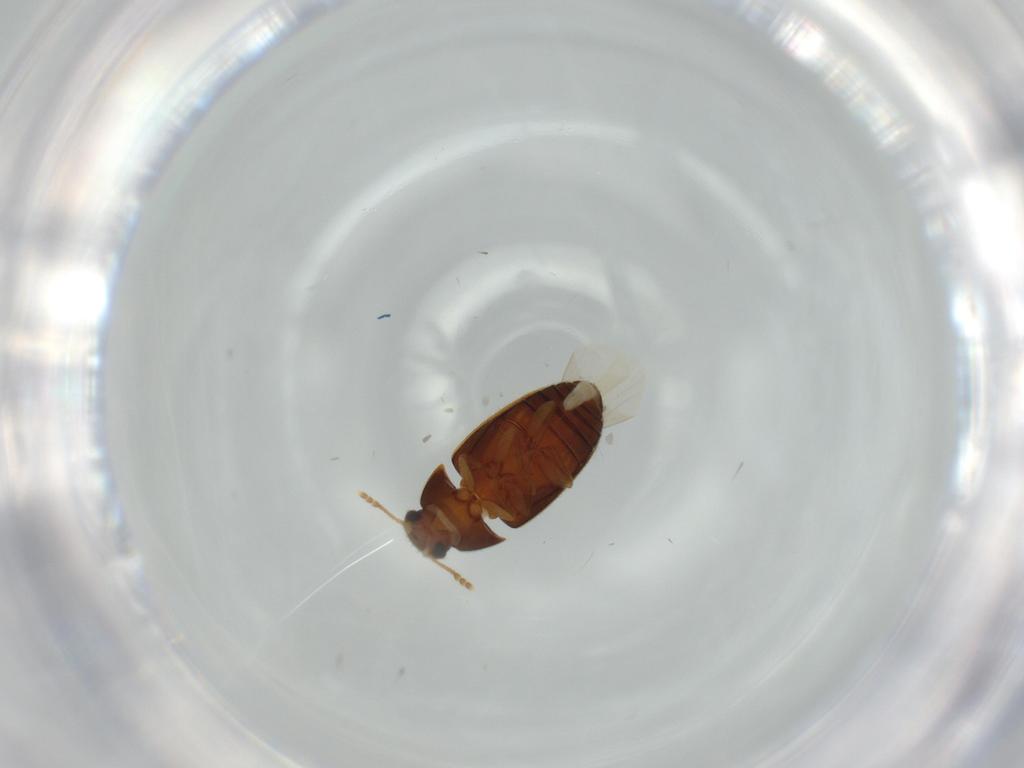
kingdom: Animalia
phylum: Arthropoda
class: Insecta
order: Coleoptera
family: Mycetophagidae
